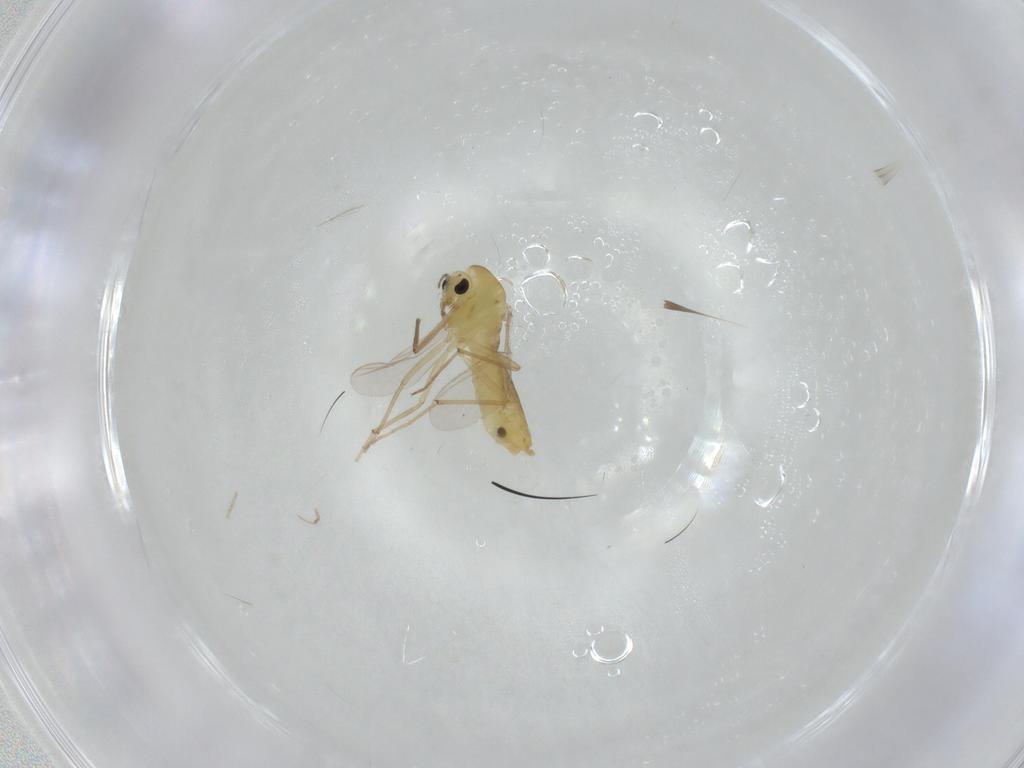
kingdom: Animalia
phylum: Arthropoda
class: Insecta
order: Diptera
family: Chironomidae
